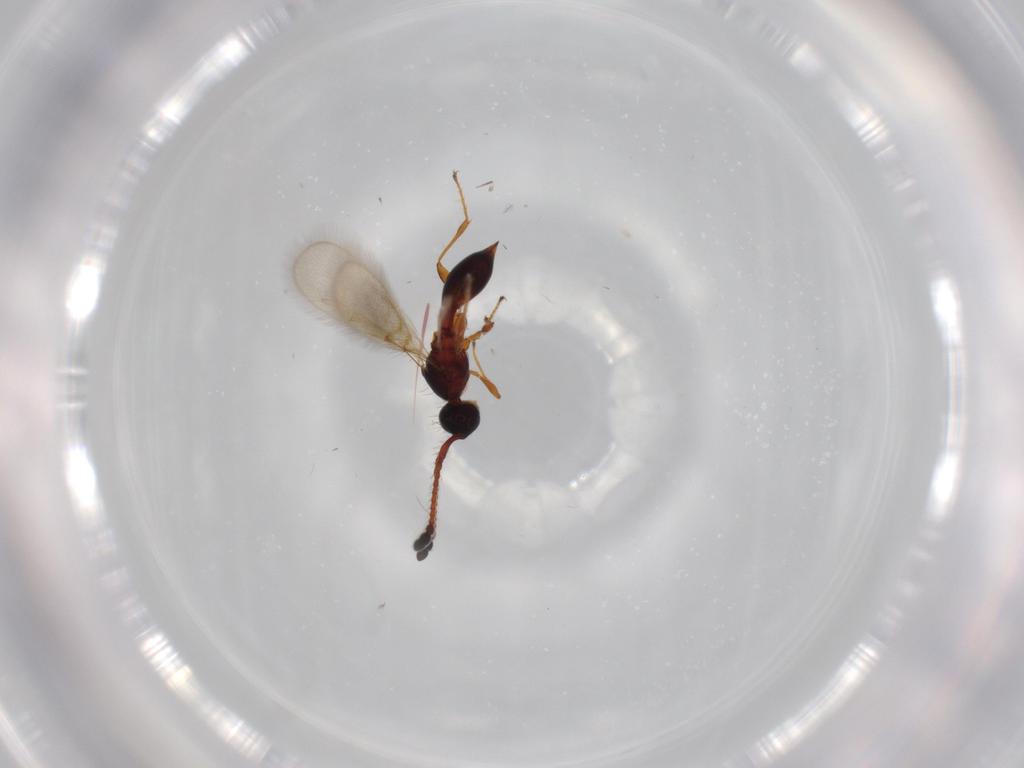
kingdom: Animalia
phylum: Arthropoda
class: Insecta
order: Hymenoptera
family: Diapriidae
